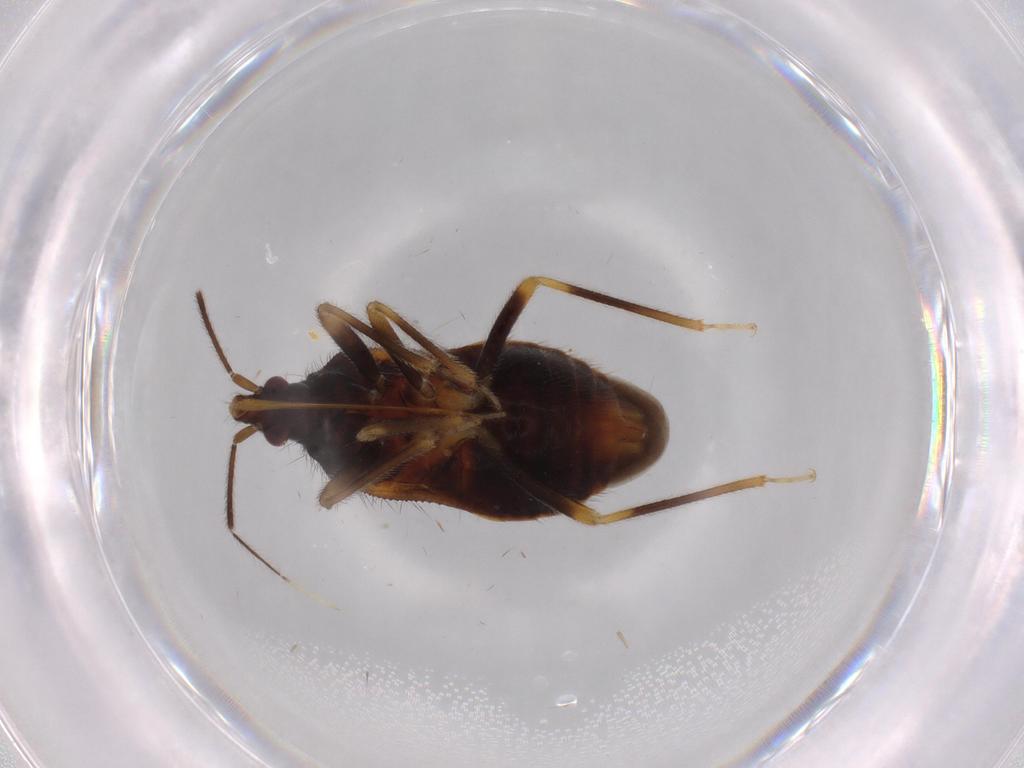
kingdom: Animalia
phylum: Arthropoda
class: Insecta
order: Hemiptera
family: Anthocoridae
